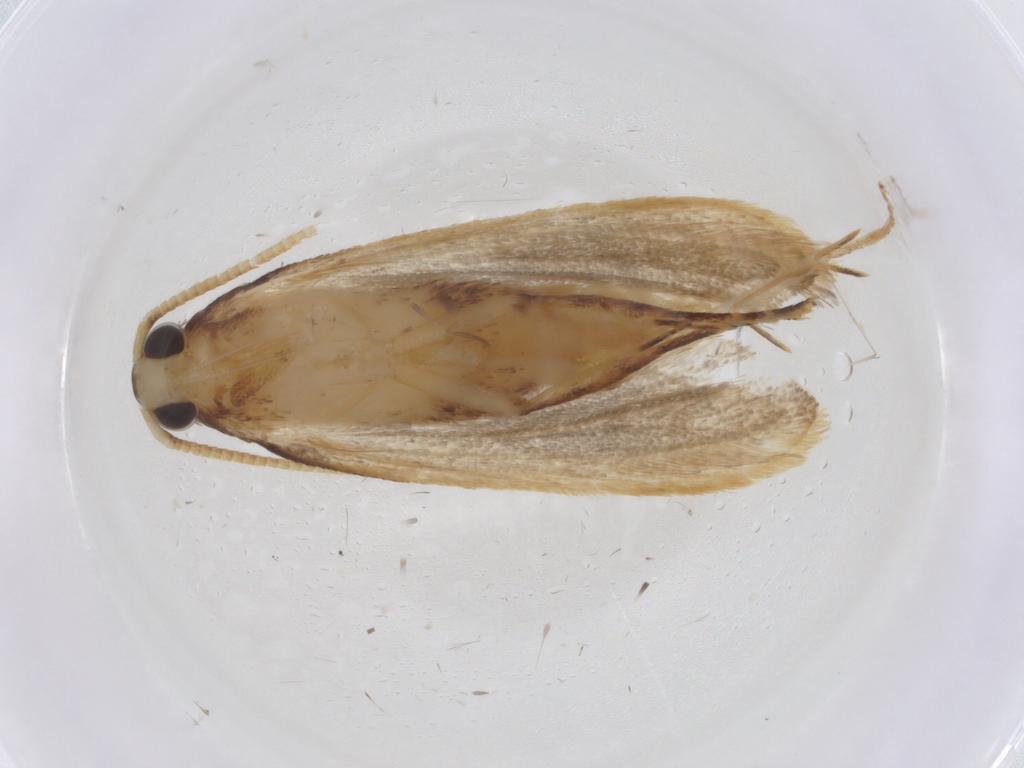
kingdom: Animalia
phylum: Arthropoda
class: Insecta
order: Lepidoptera
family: Lecithoceridae
